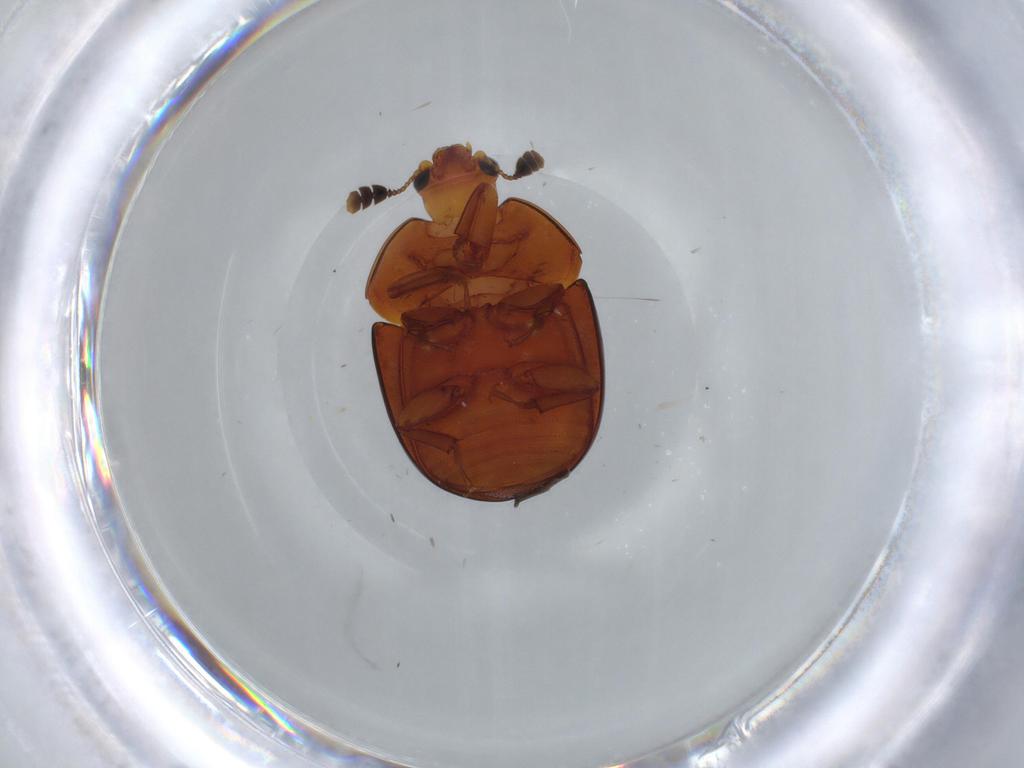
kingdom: Animalia
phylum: Arthropoda
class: Insecta
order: Coleoptera
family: Nitidulidae
